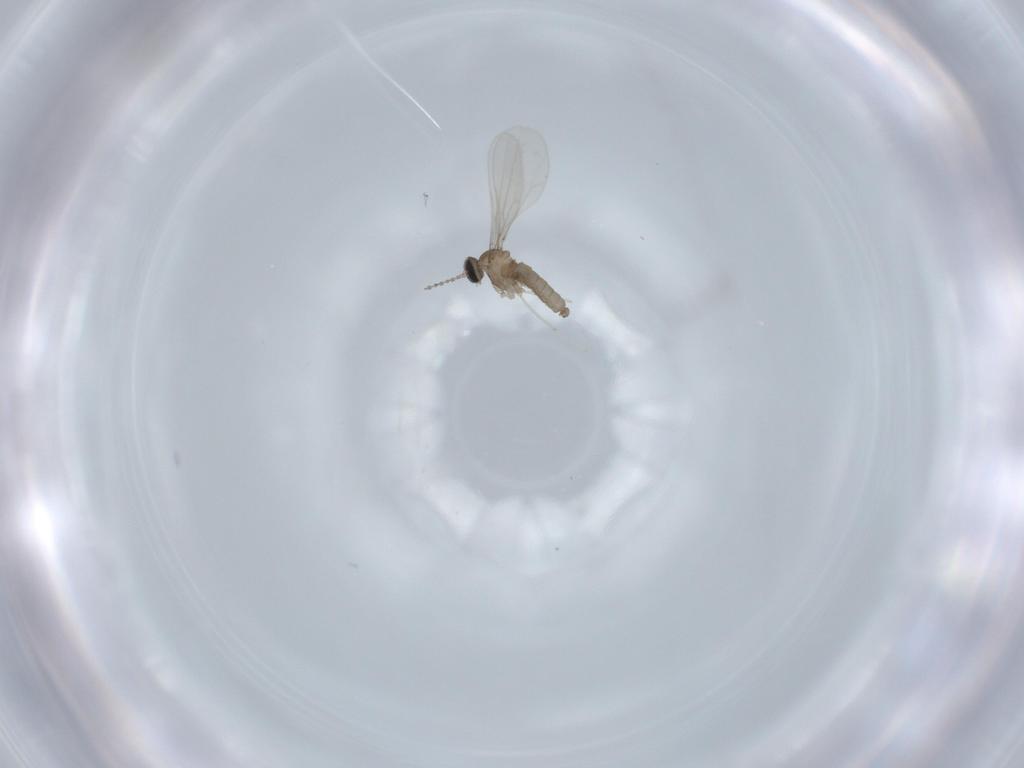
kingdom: Animalia
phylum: Arthropoda
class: Insecta
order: Diptera
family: Cecidomyiidae
